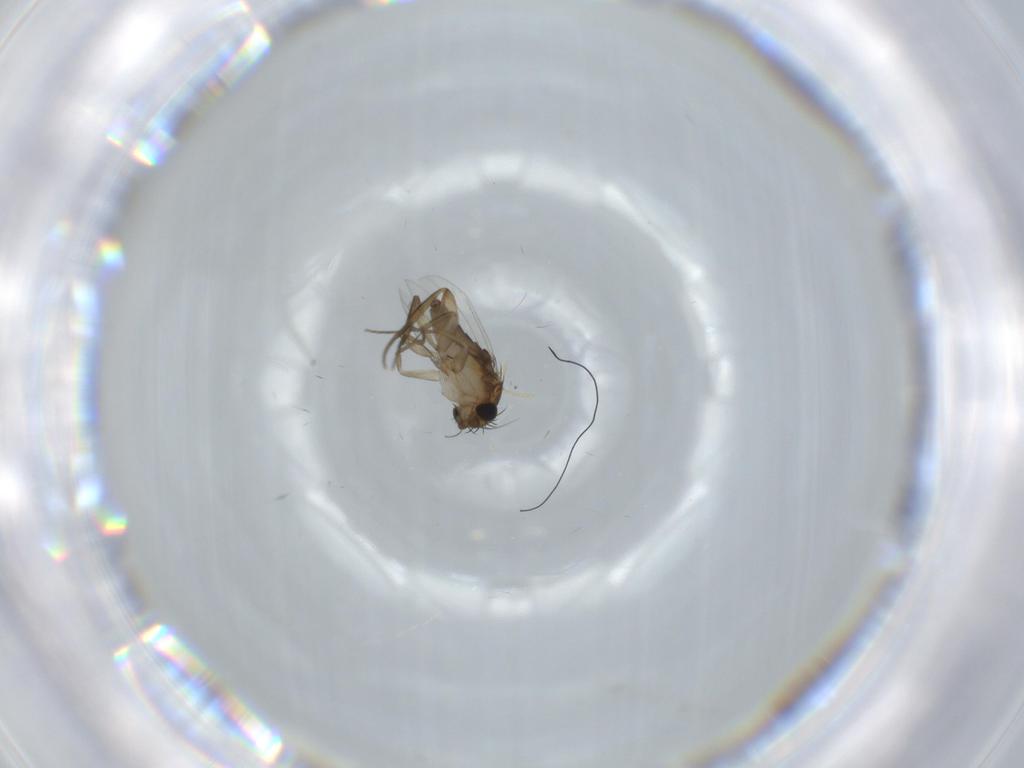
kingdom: Animalia
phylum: Arthropoda
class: Insecta
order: Diptera
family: Phoridae
